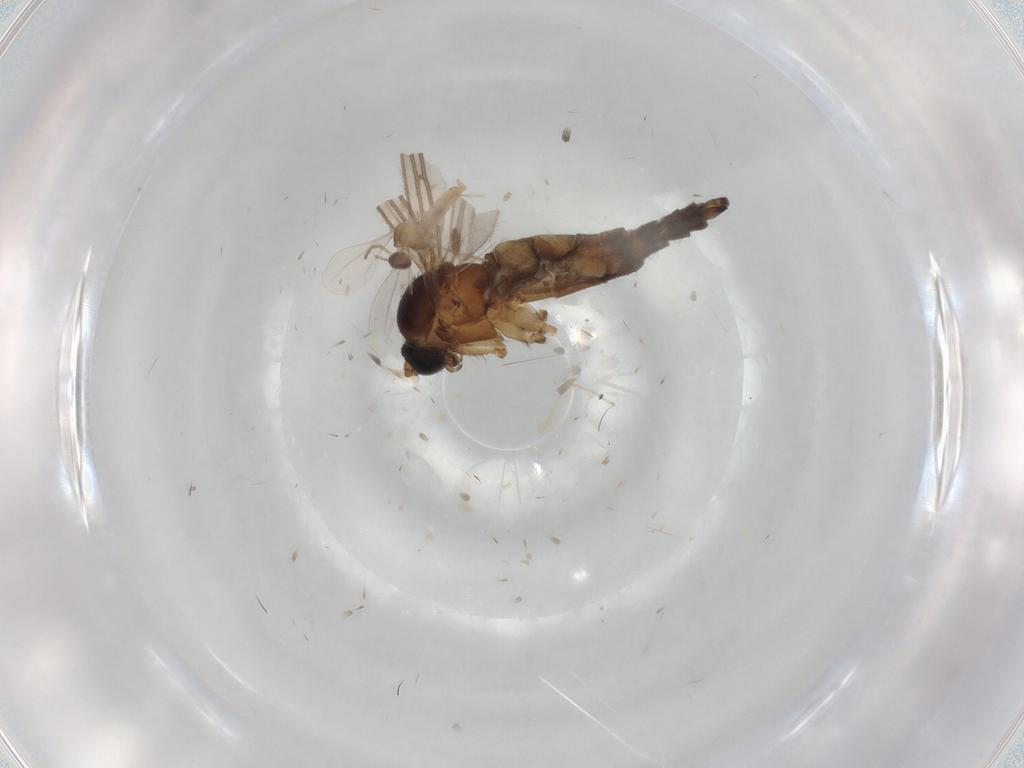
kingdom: Animalia
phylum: Arthropoda
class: Insecta
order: Diptera
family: Sciaridae
